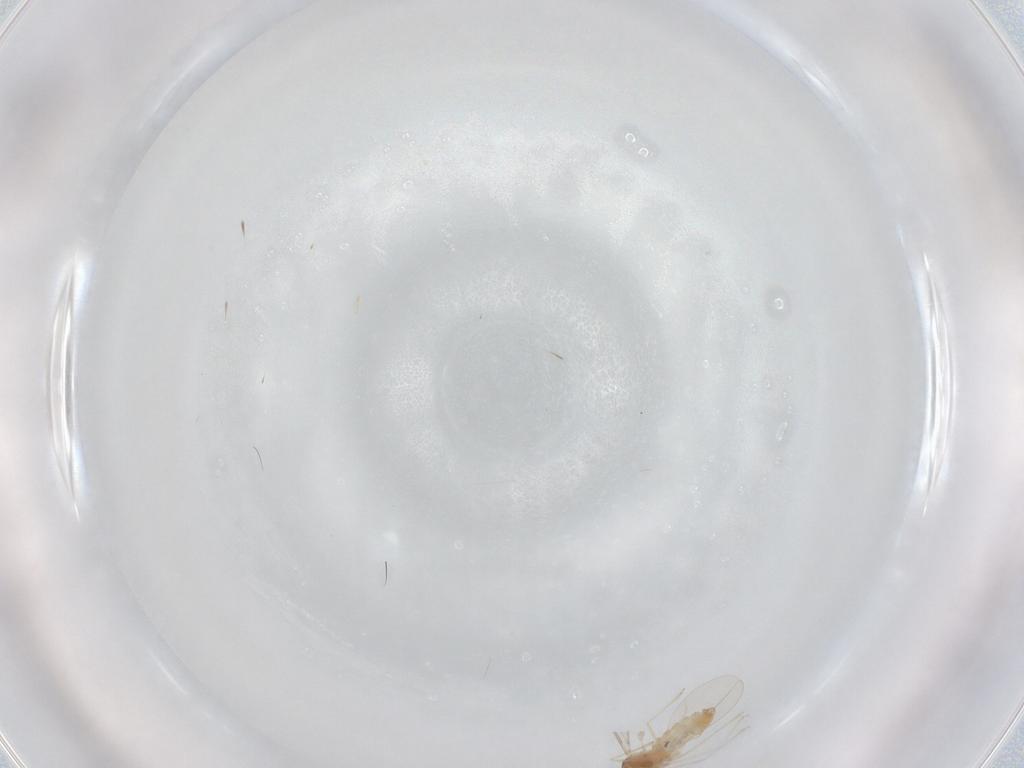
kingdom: Animalia
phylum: Arthropoda
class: Insecta
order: Diptera
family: Cecidomyiidae
